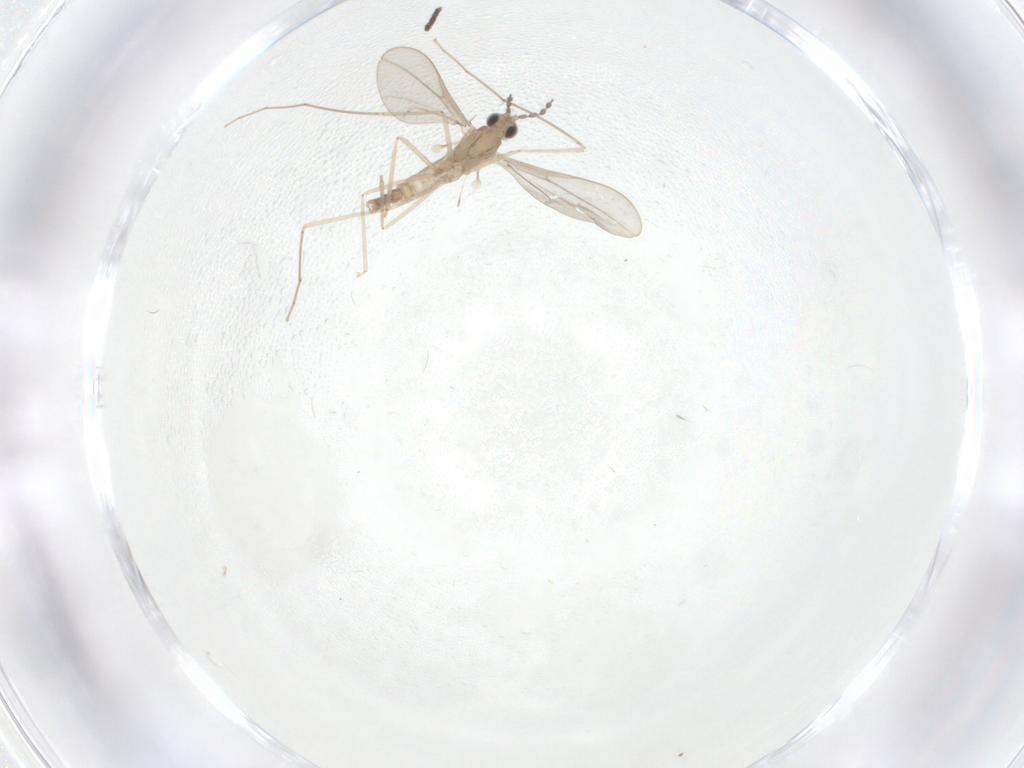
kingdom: Animalia
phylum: Arthropoda
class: Insecta
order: Diptera
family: Cecidomyiidae
